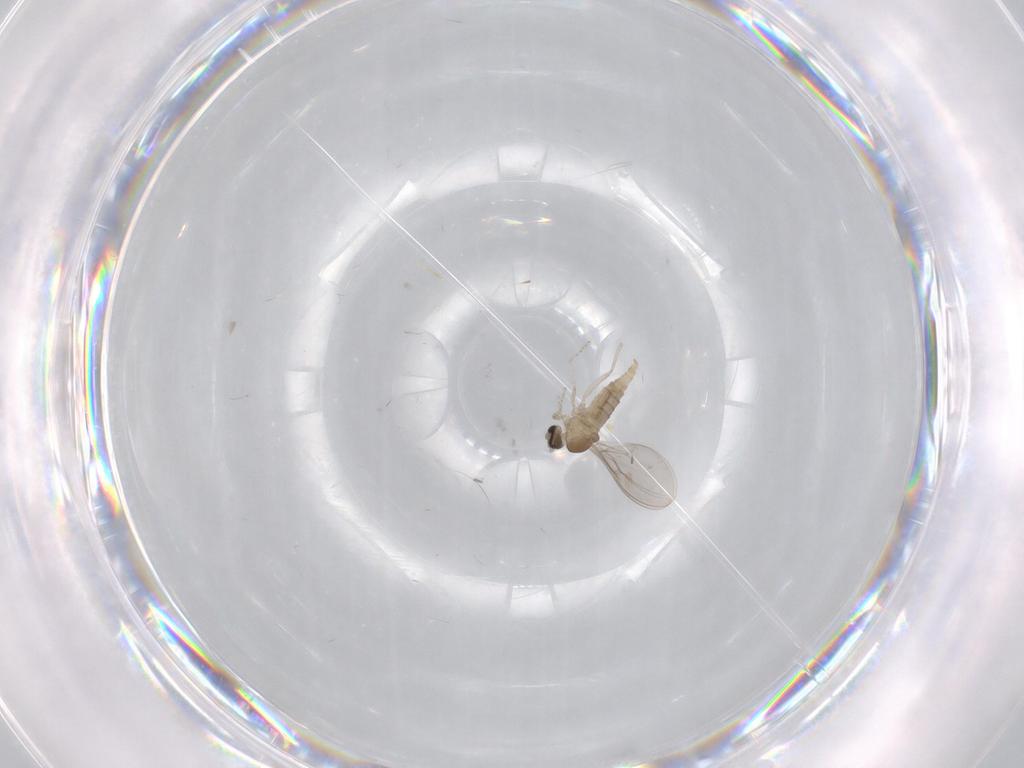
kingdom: Animalia
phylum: Arthropoda
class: Insecta
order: Diptera
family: Cecidomyiidae
